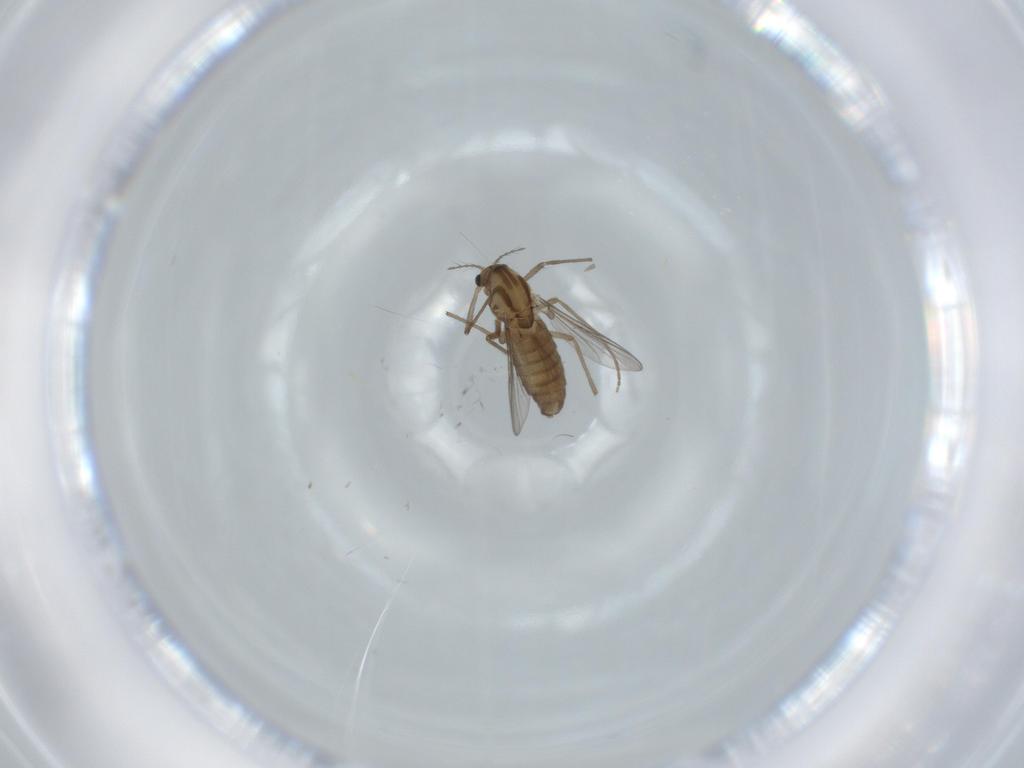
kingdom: Animalia
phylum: Arthropoda
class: Insecta
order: Diptera
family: Chironomidae
